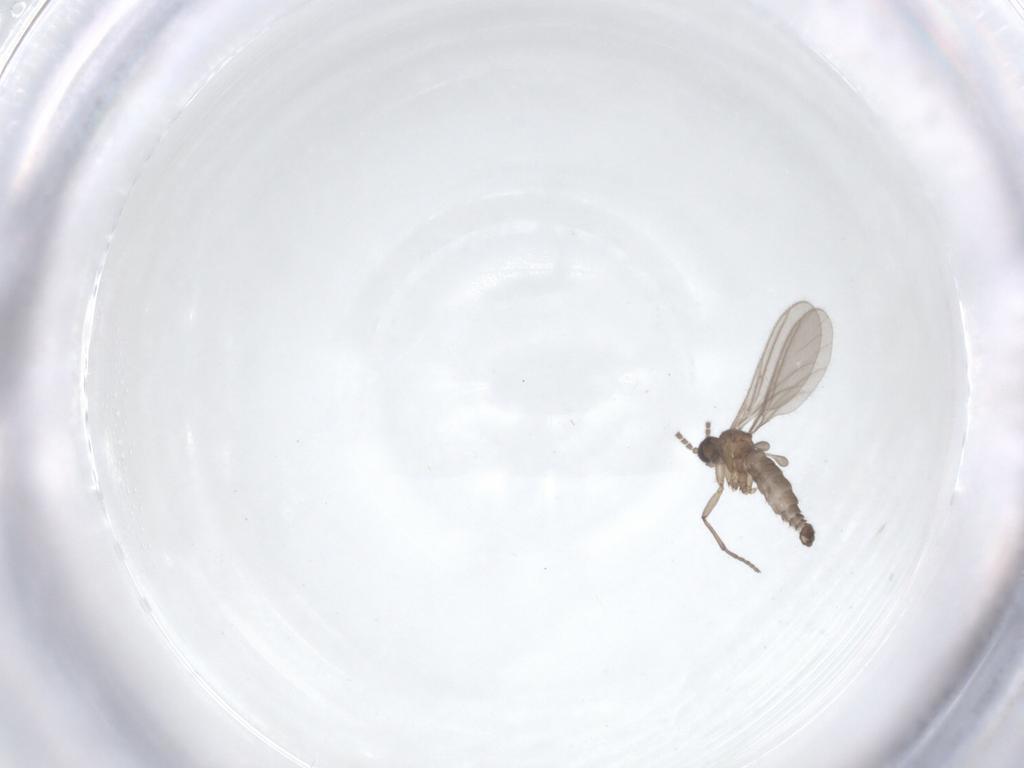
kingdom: Animalia
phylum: Arthropoda
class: Insecta
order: Diptera
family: Sciaridae
